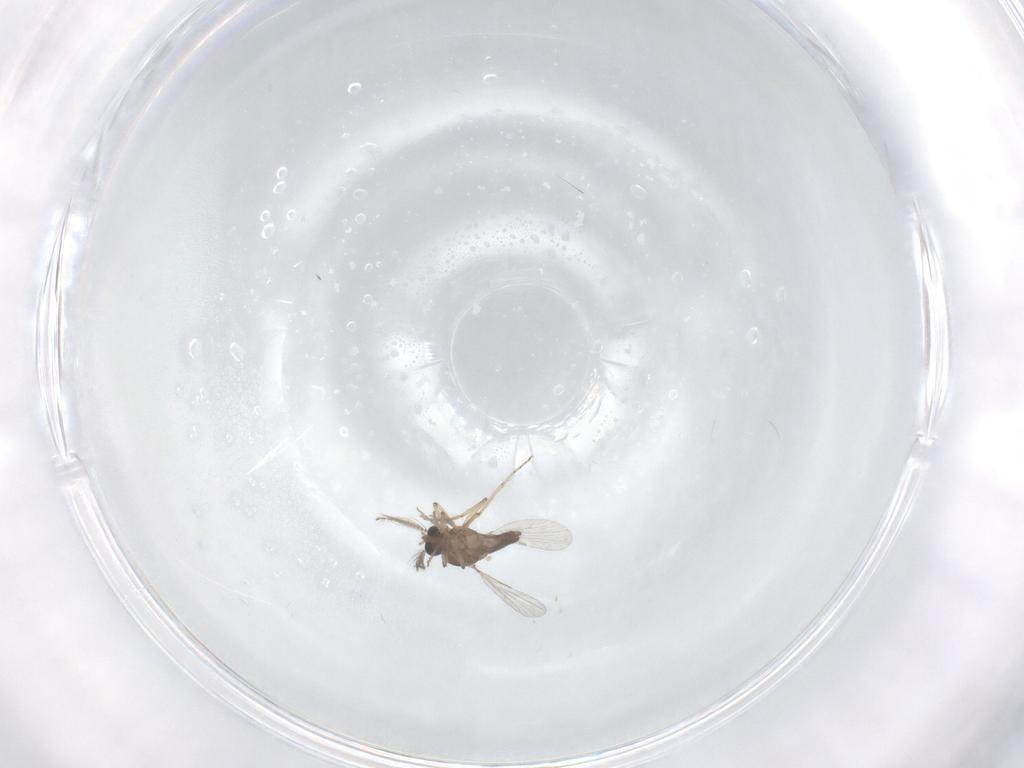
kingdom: Animalia
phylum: Arthropoda
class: Insecta
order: Diptera
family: Ceratopogonidae
